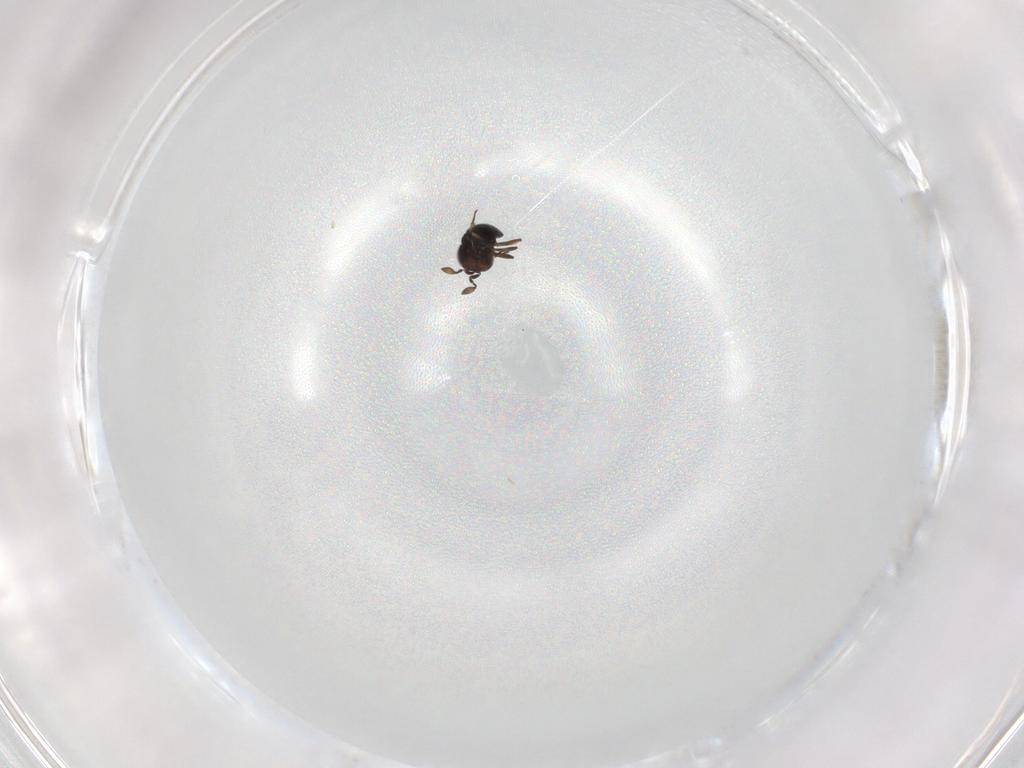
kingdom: Animalia
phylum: Arthropoda
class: Insecta
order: Hymenoptera
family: Scelionidae
